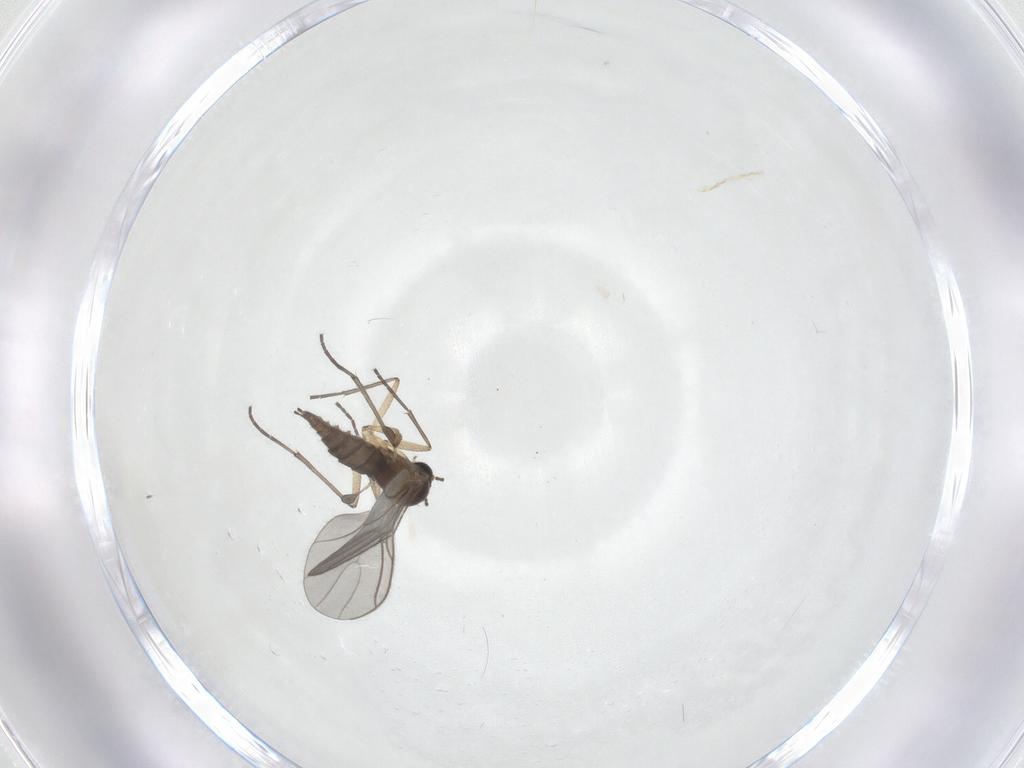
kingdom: Animalia
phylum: Arthropoda
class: Insecta
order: Diptera
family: Sciaridae
